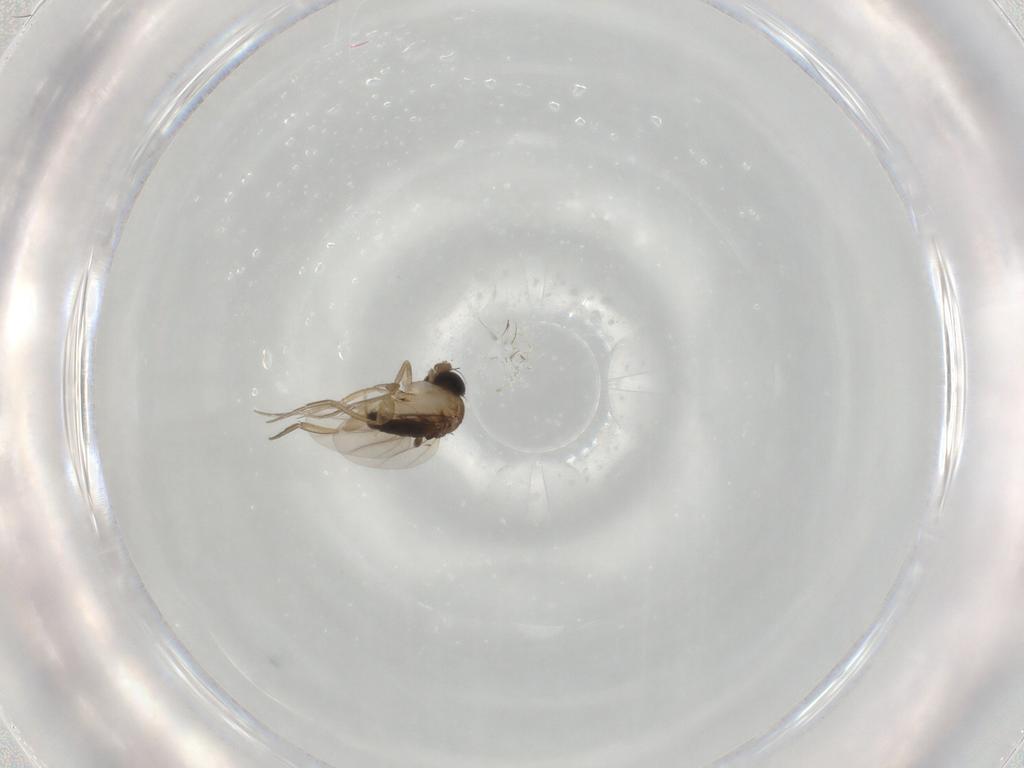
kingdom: Animalia
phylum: Arthropoda
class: Insecta
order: Diptera
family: Phoridae
